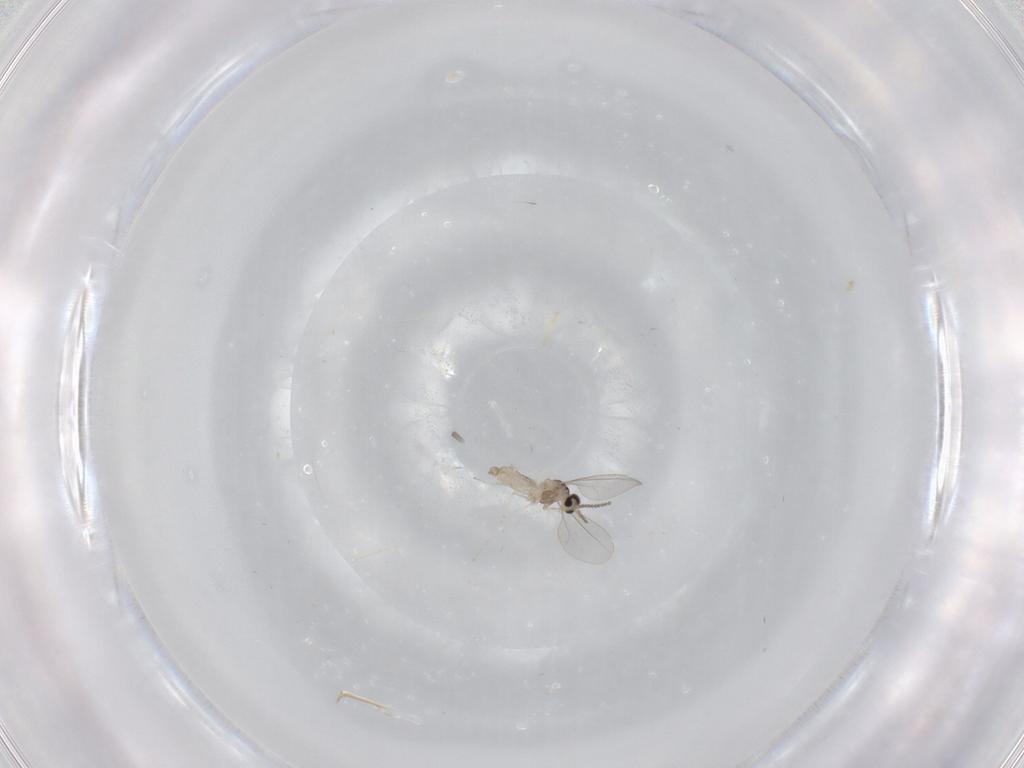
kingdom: Animalia
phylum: Arthropoda
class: Insecta
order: Diptera
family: Cecidomyiidae
